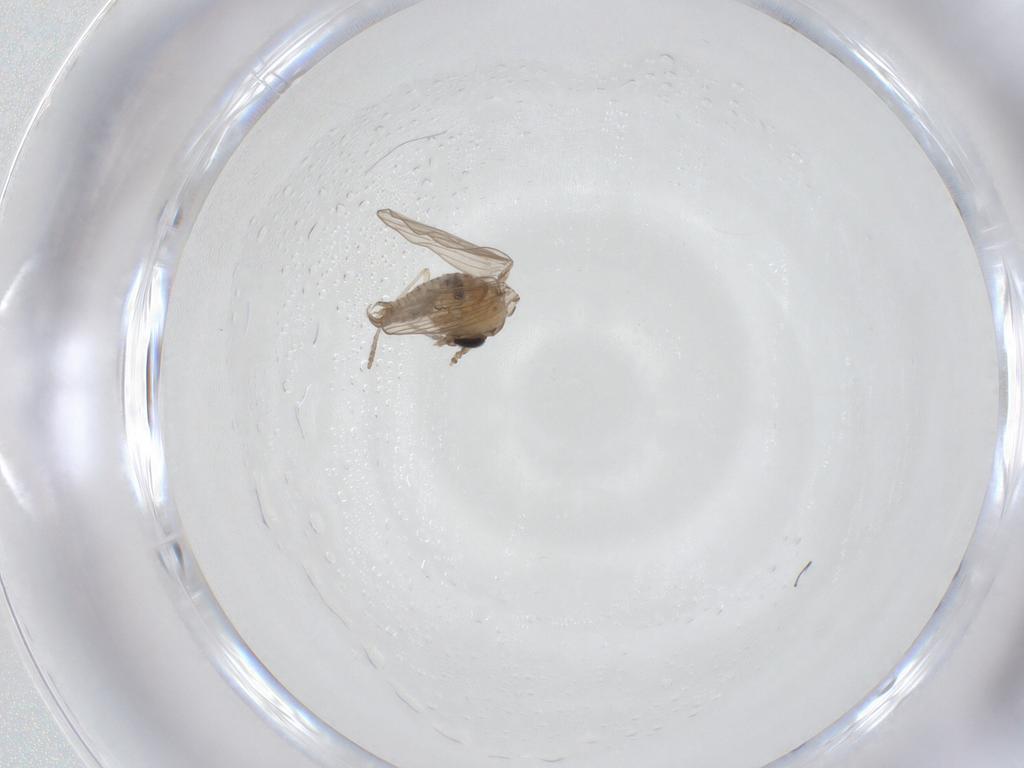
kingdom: Animalia
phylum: Arthropoda
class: Insecta
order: Diptera
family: Psychodidae
